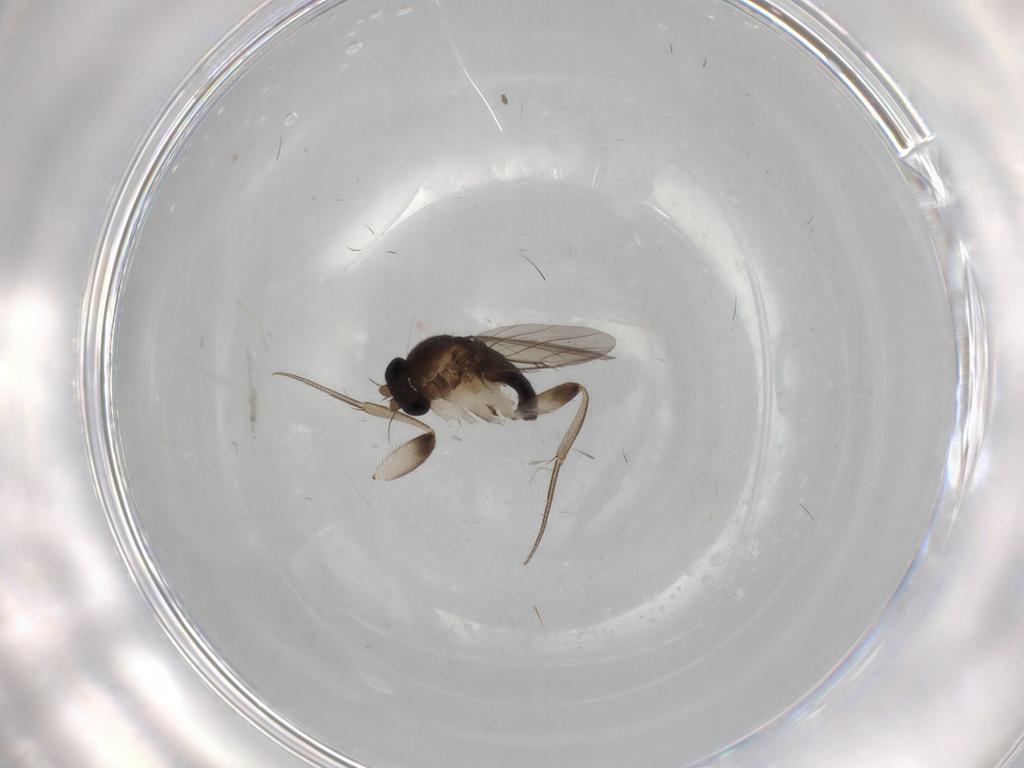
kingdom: Animalia
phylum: Arthropoda
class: Insecta
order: Diptera
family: Phoridae
